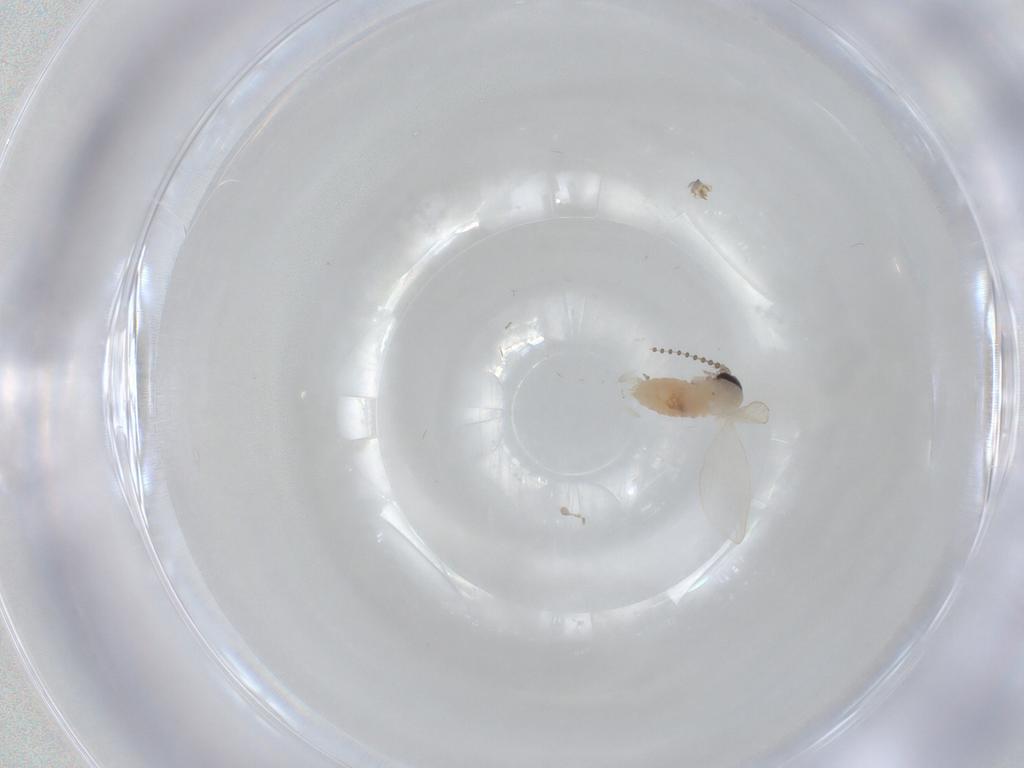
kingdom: Animalia
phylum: Arthropoda
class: Insecta
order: Diptera
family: Psychodidae
